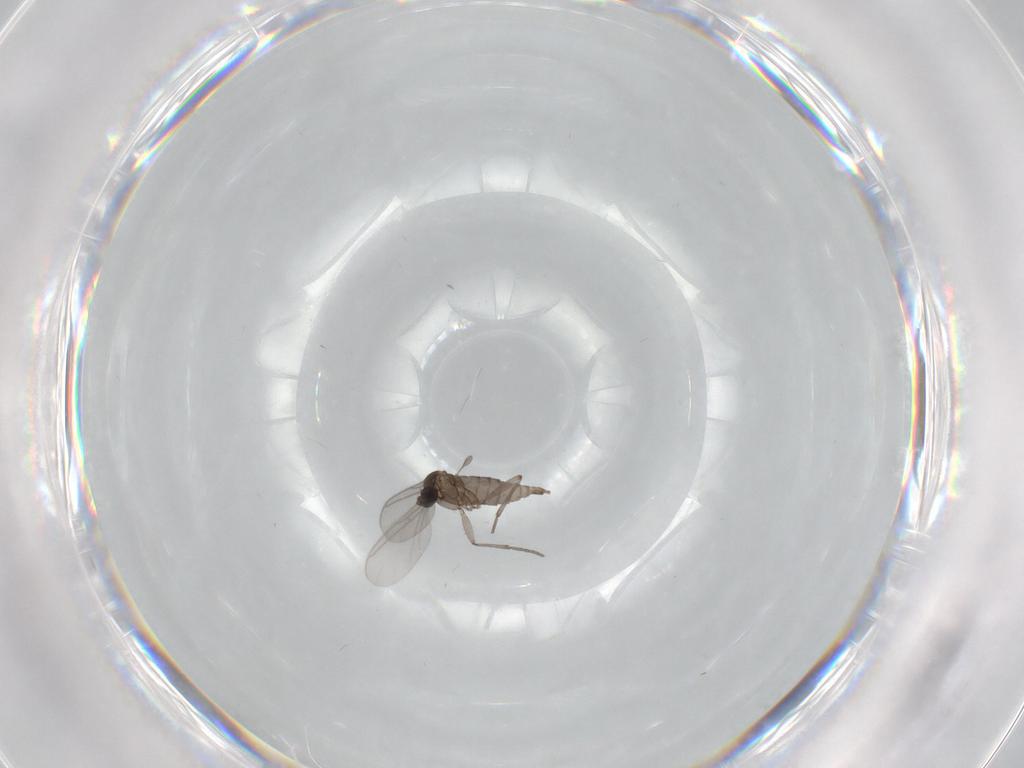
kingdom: Animalia
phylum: Arthropoda
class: Insecta
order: Diptera
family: Sciaridae
